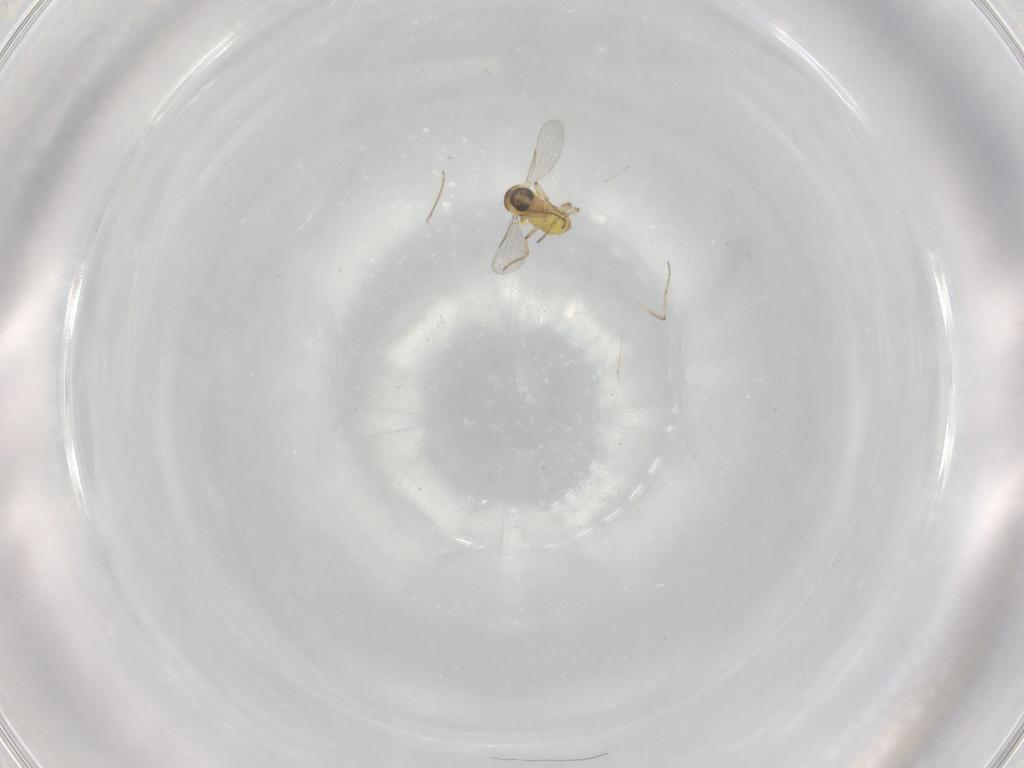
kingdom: Animalia
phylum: Arthropoda
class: Insecta
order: Diptera
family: Ceratopogonidae
